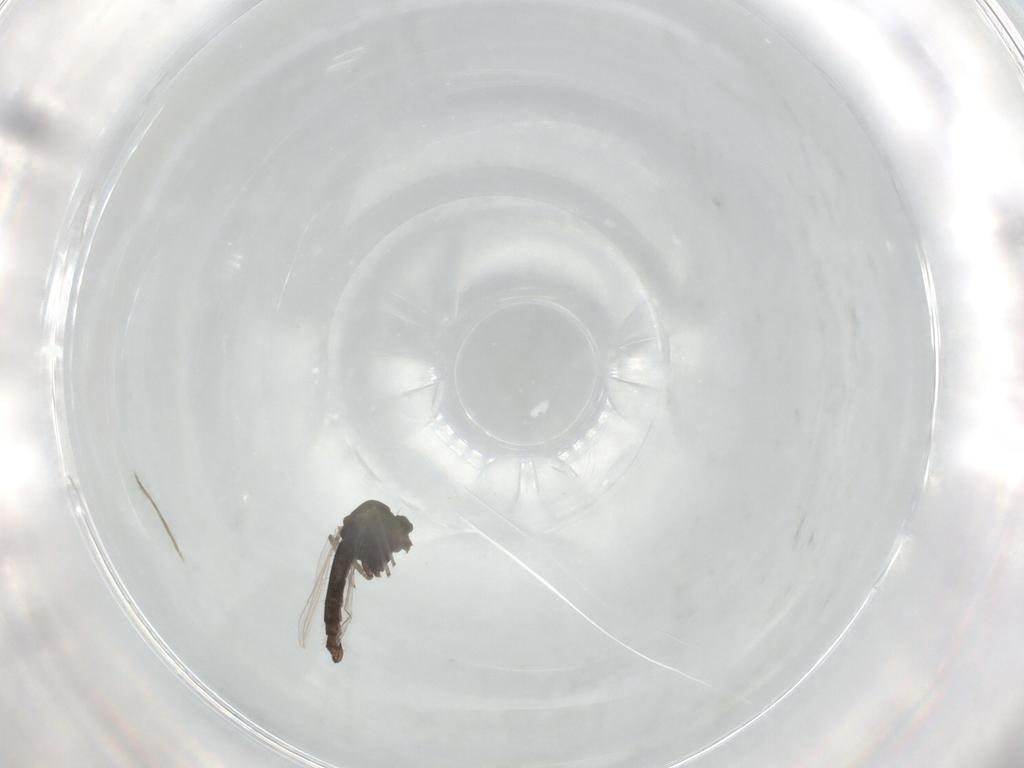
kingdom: Animalia
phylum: Arthropoda
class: Insecta
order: Diptera
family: Chironomidae
